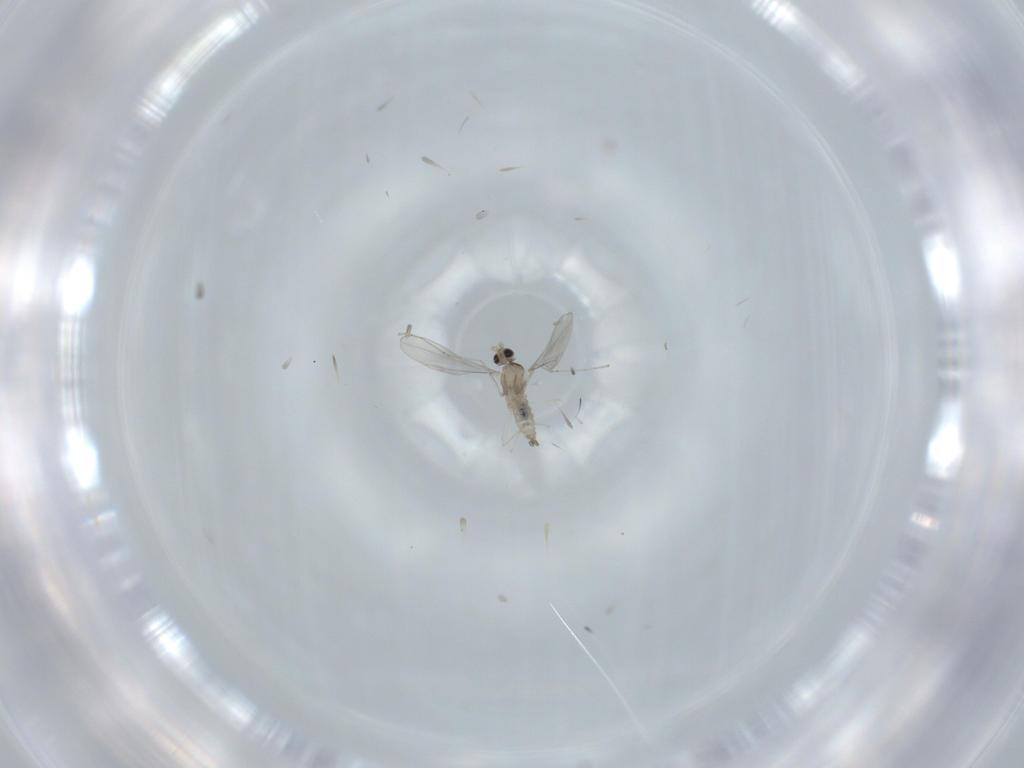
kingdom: Animalia
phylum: Arthropoda
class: Insecta
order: Diptera
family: Cecidomyiidae
